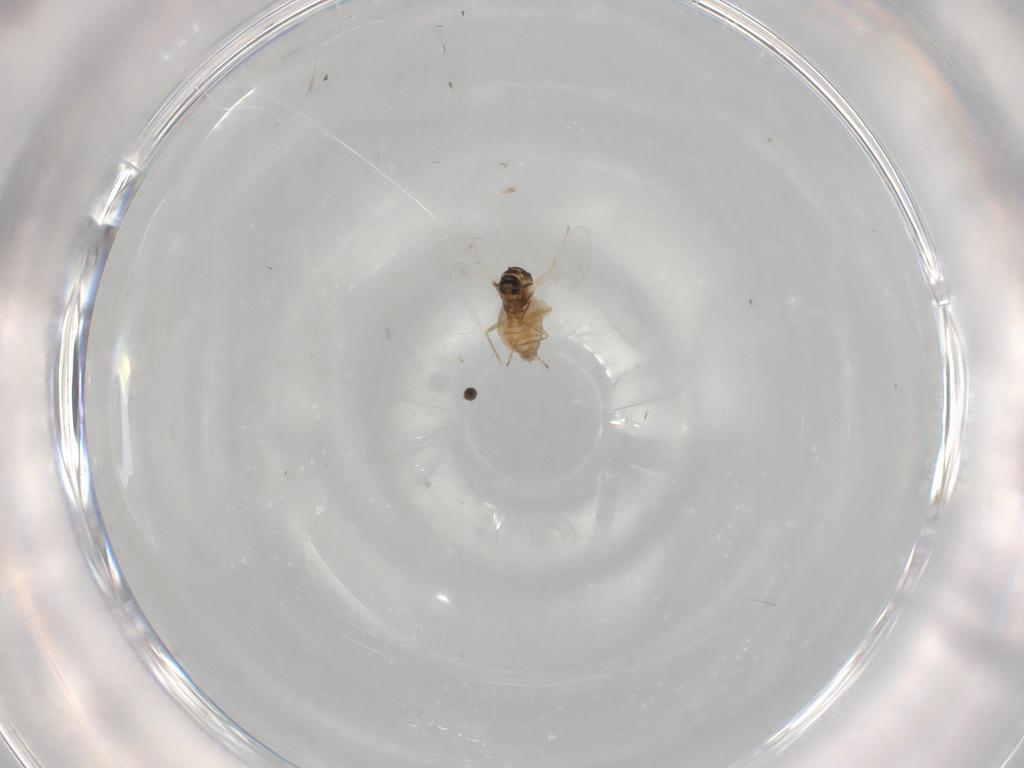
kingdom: Animalia
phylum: Arthropoda
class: Insecta
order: Diptera
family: Cecidomyiidae
